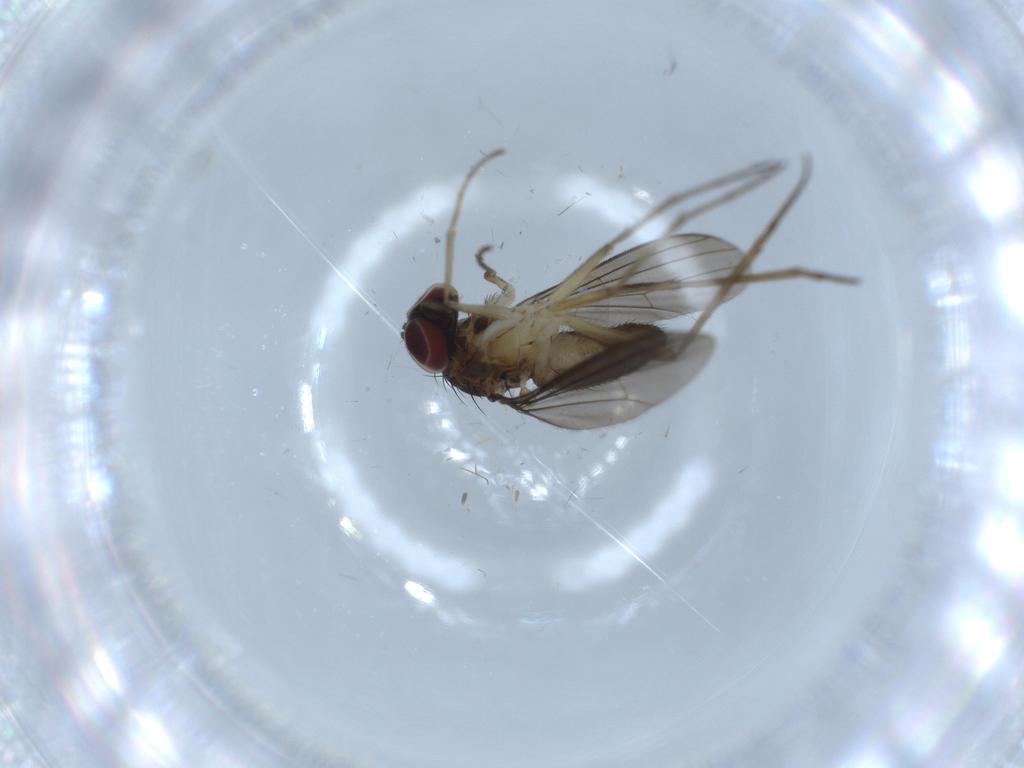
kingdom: Animalia
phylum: Arthropoda
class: Insecta
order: Diptera
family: Dolichopodidae
